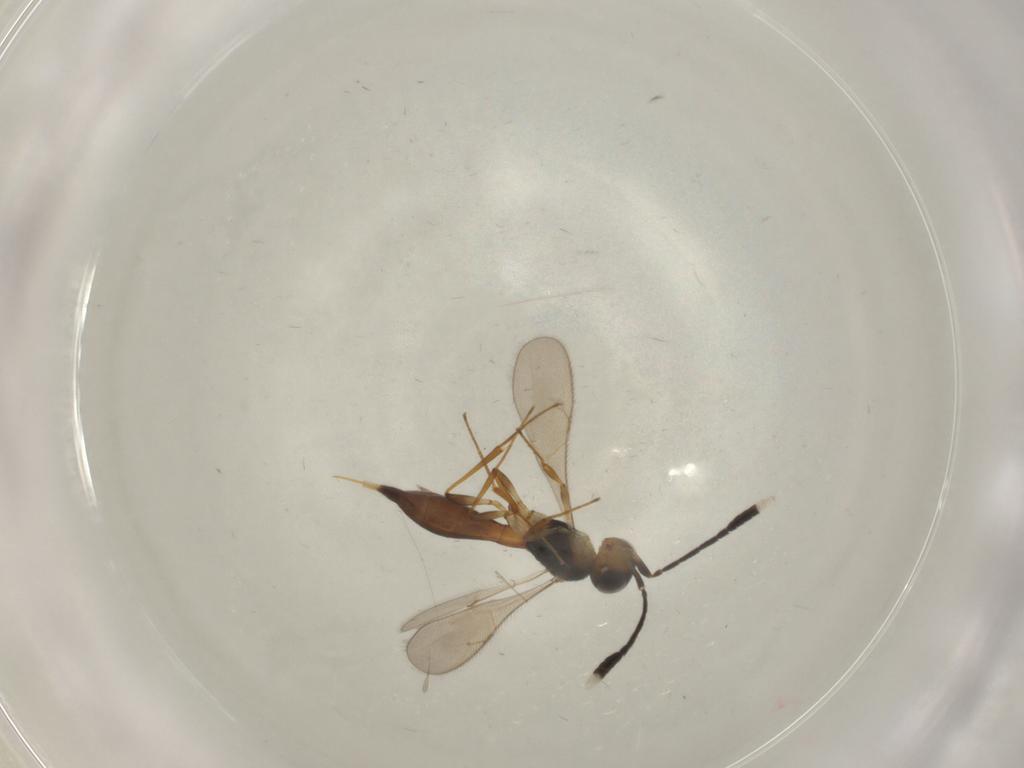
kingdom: Animalia
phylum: Arthropoda
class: Insecta
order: Hymenoptera
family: Scelionidae
